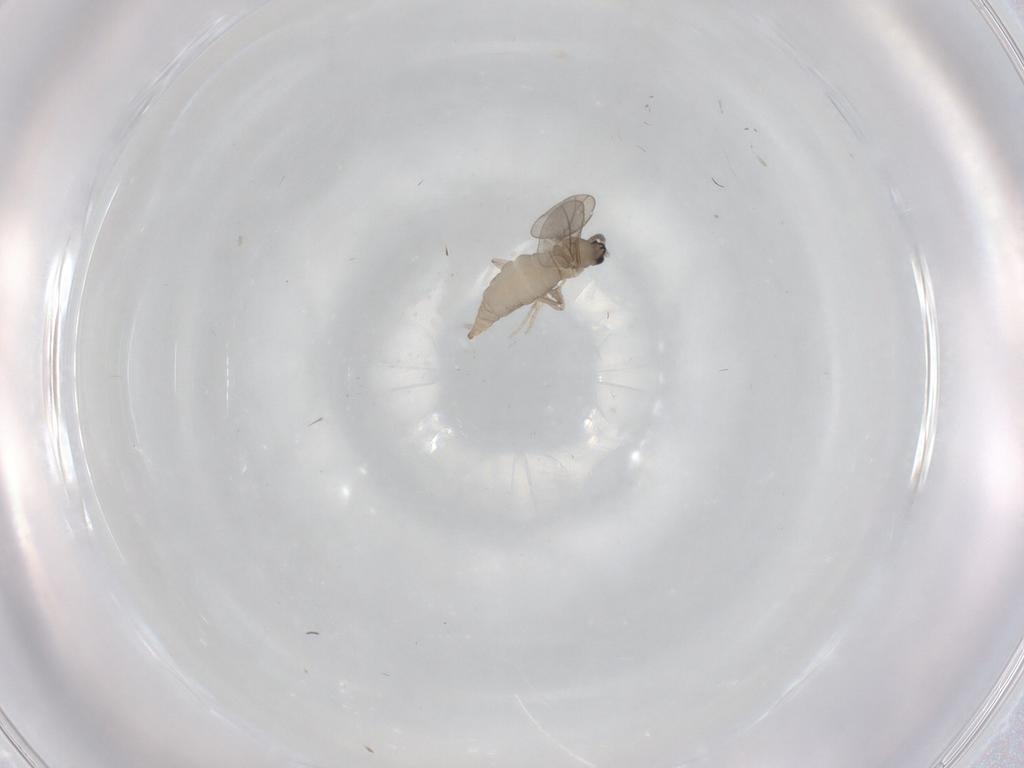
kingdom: Animalia
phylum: Arthropoda
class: Insecta
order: Diptera
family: Cecidomyiidae
